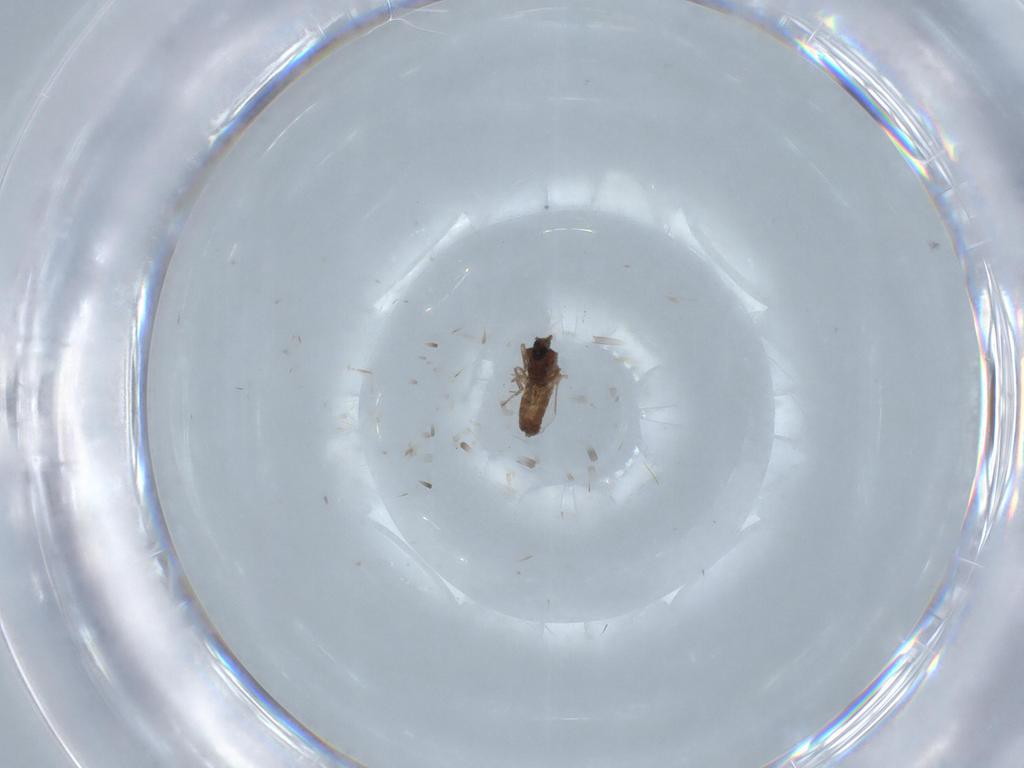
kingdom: Animalia
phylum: Arthropoda
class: Insecta
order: Diptera
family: Ceratopogonidae
